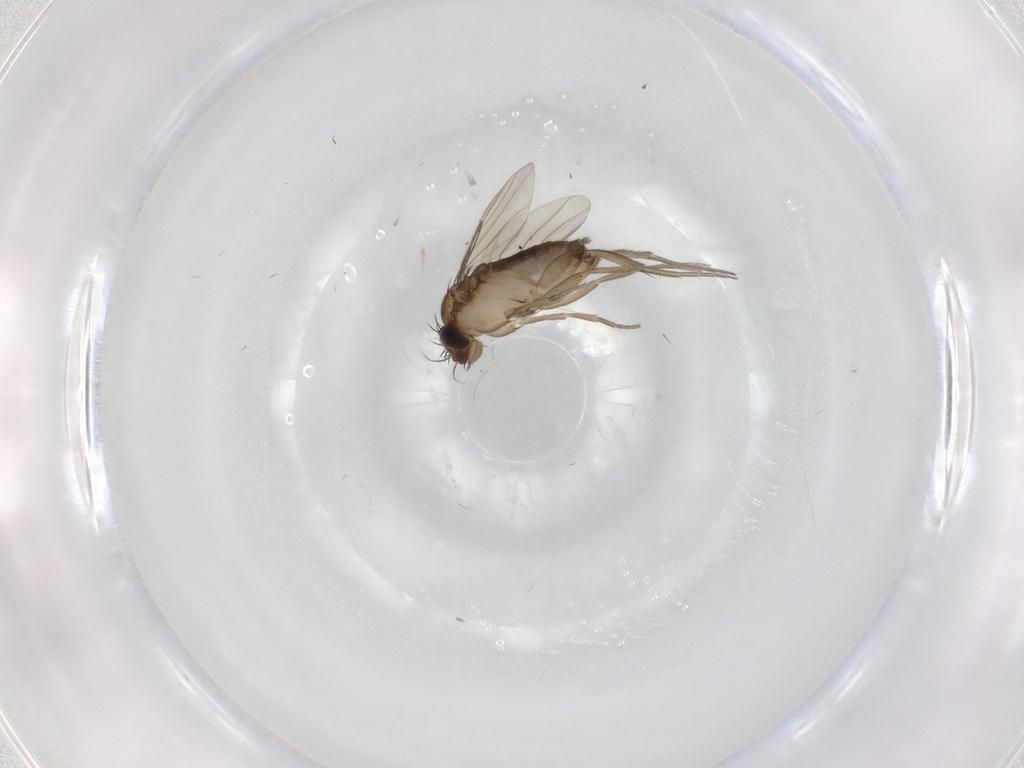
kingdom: Animalia
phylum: Arthropoda
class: Insecta
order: Diptera
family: Phoridae
